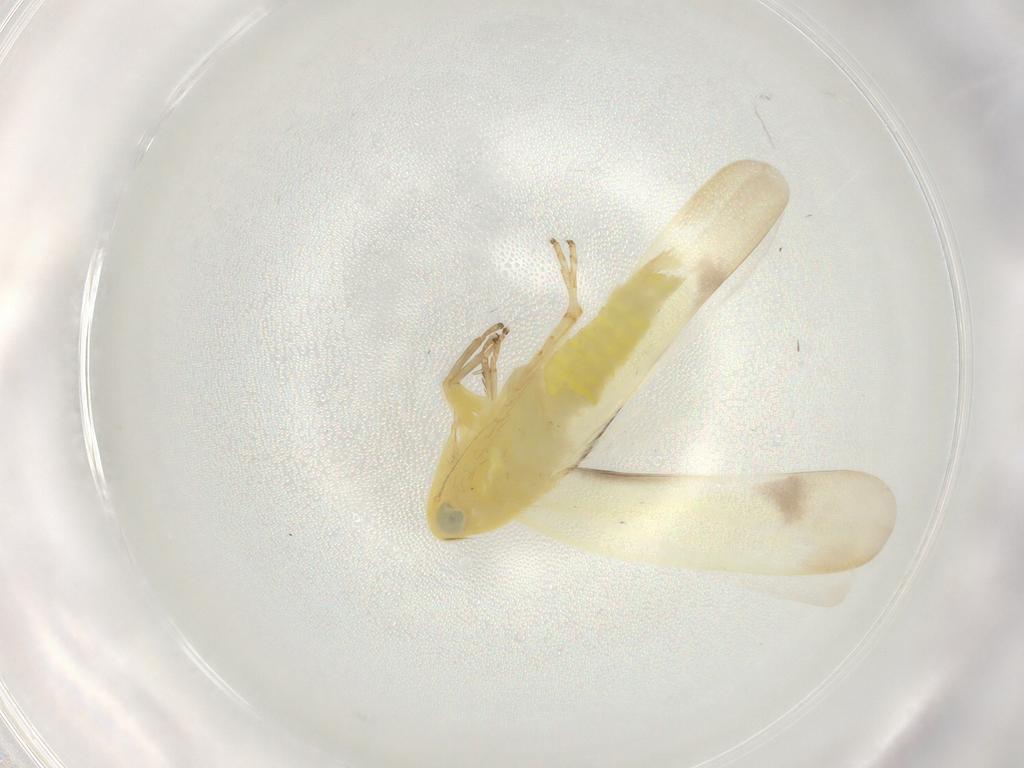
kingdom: Animalia
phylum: Arthropoda
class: Insecta
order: Hemiptera
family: Cicadellidae
